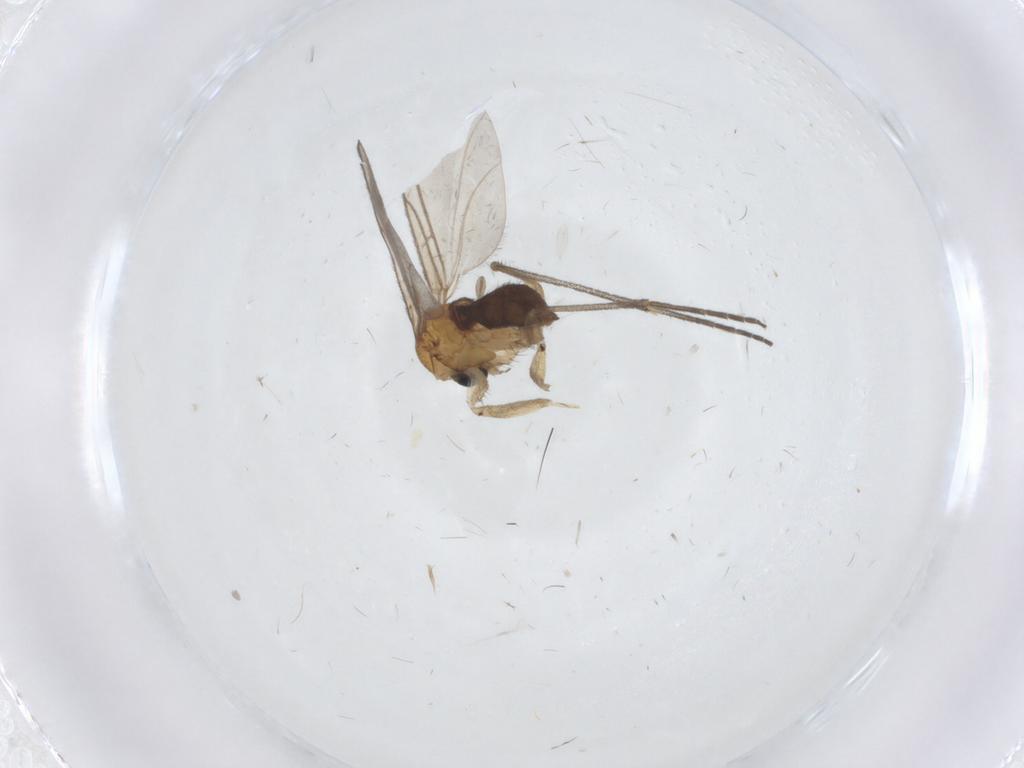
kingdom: Animalia
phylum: Arthropoda
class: Insecta
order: Diptera
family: Sciaridae
